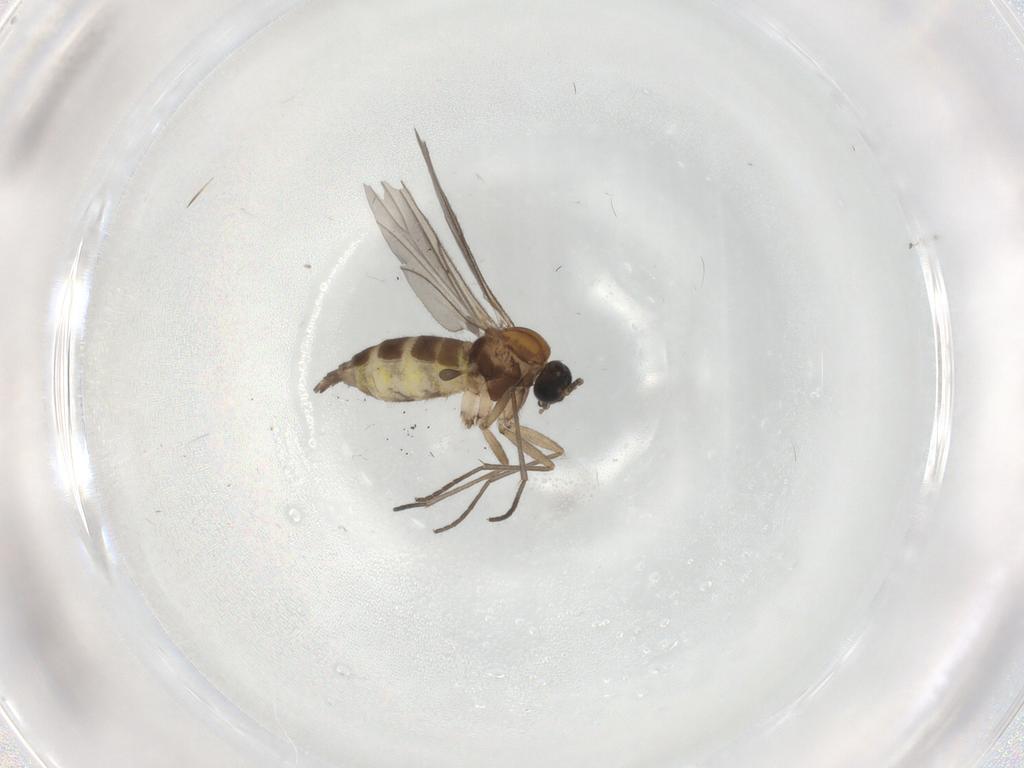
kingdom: Animalia
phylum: Arthropoda
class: Insecta
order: Diptera
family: Sciaridae
